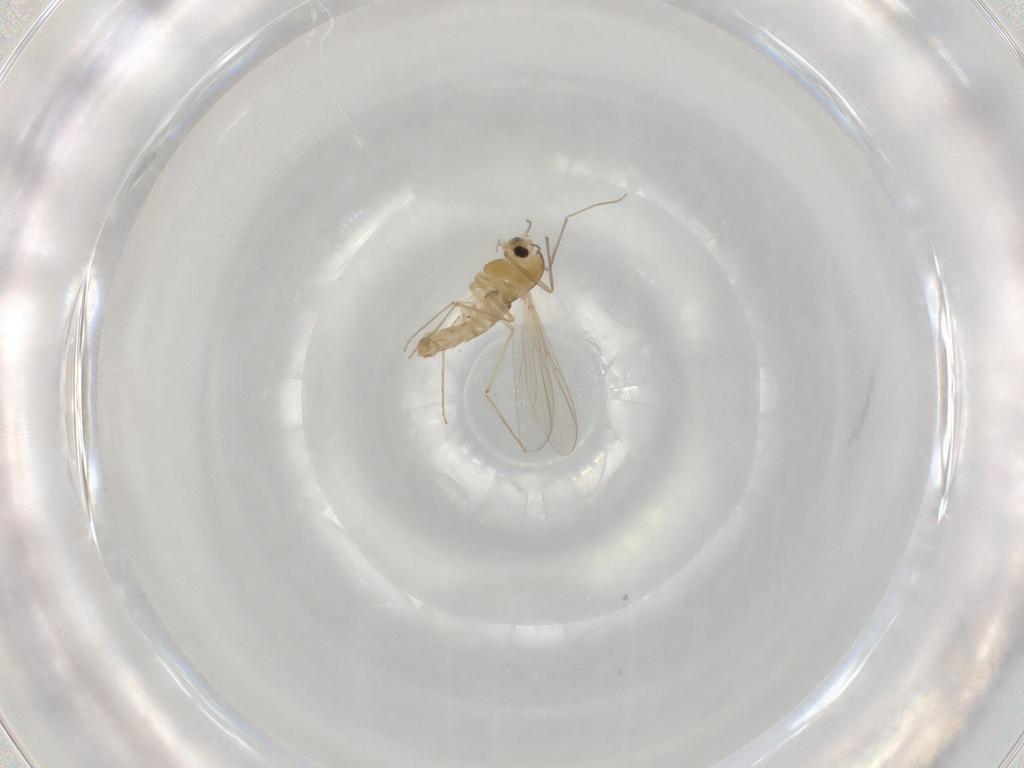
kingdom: Animalia
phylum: Arthropoda
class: Insecta
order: Diptera
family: Chironomidae
